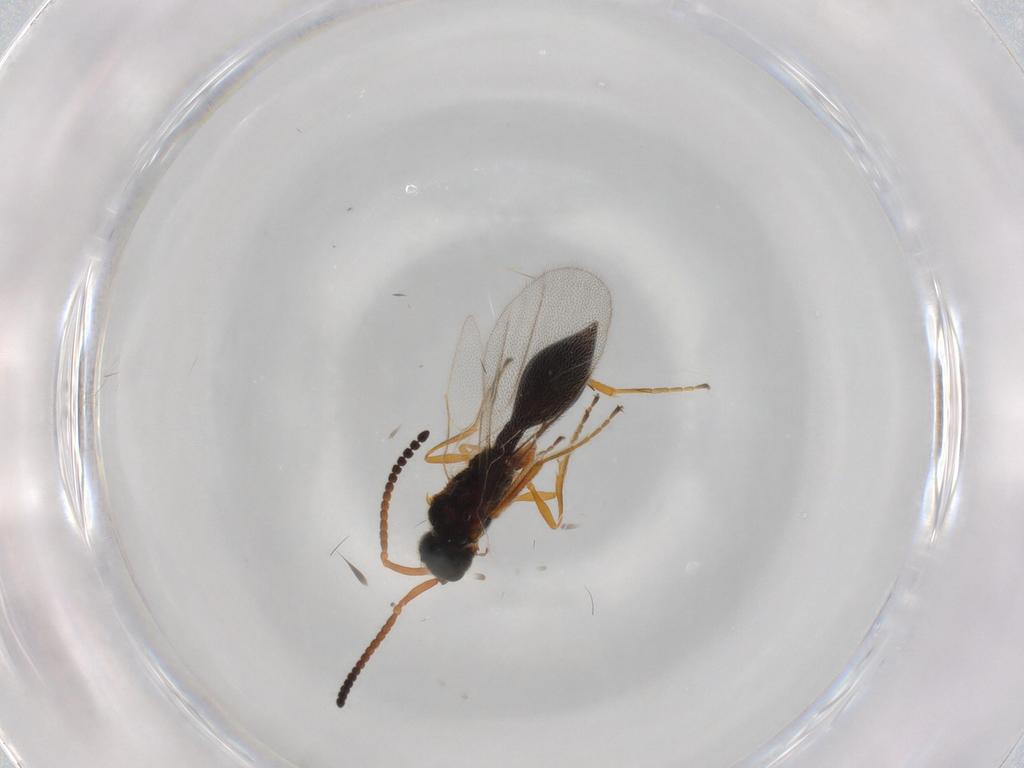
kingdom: Animalia
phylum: Arthropoda
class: Insecta
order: Hymenoptera
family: Diapriidae
